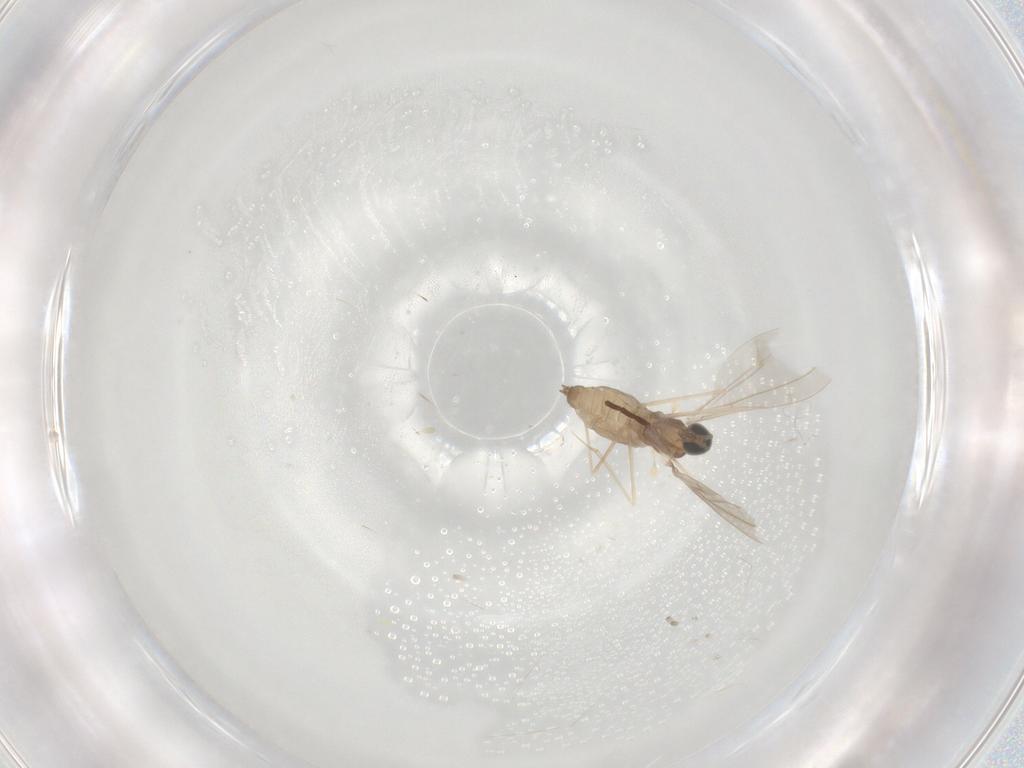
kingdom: Animalia
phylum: Arthropoda
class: Insecta
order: Diptera
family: Cecidomyiidae
